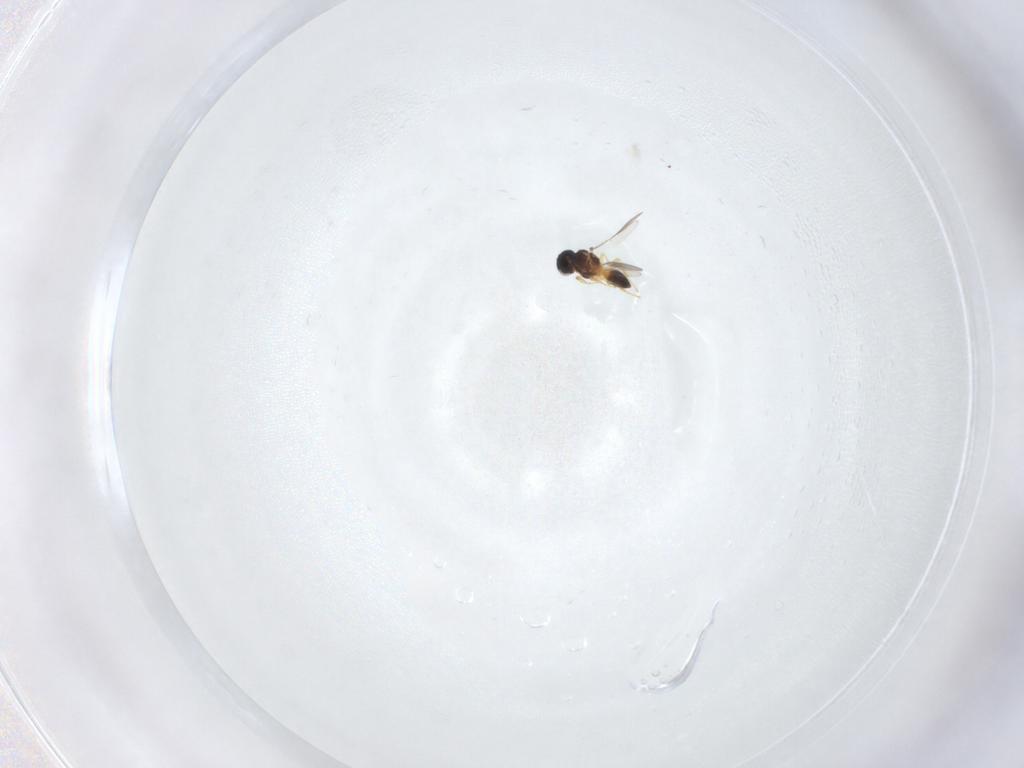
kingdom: Animalia
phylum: Arthropoda
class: Insecta
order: Hymenoptera
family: Platygastridae
